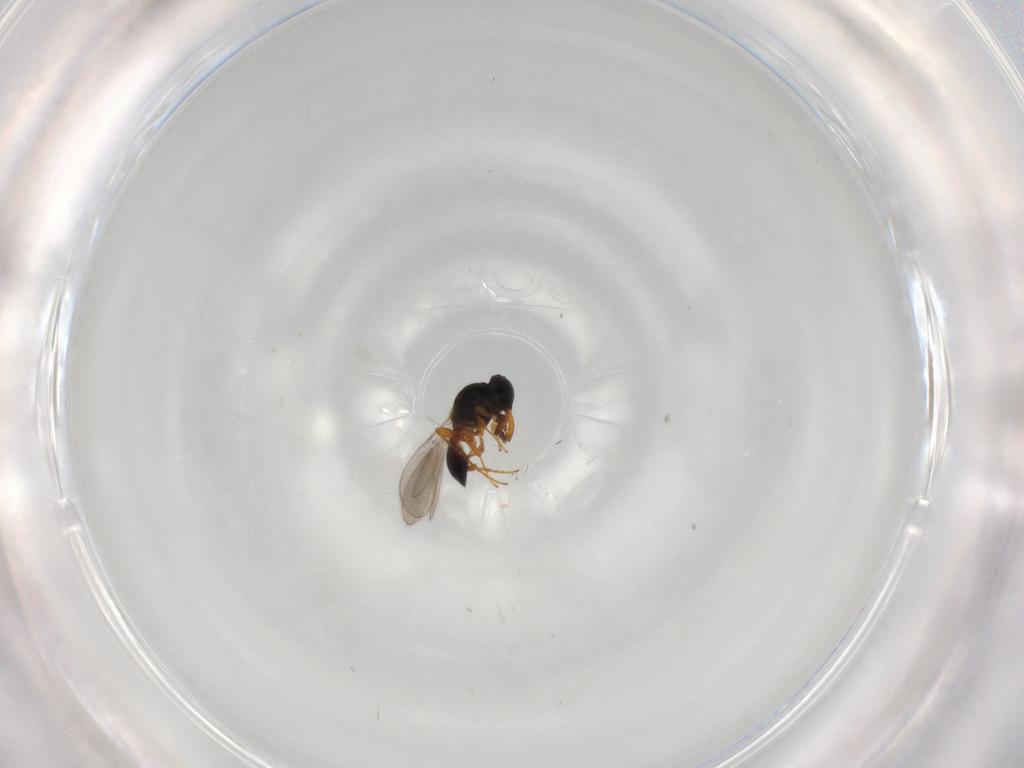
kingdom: Animalia
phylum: Arthropoda
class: Insecta
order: Hymenoptera
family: Platygastridae
